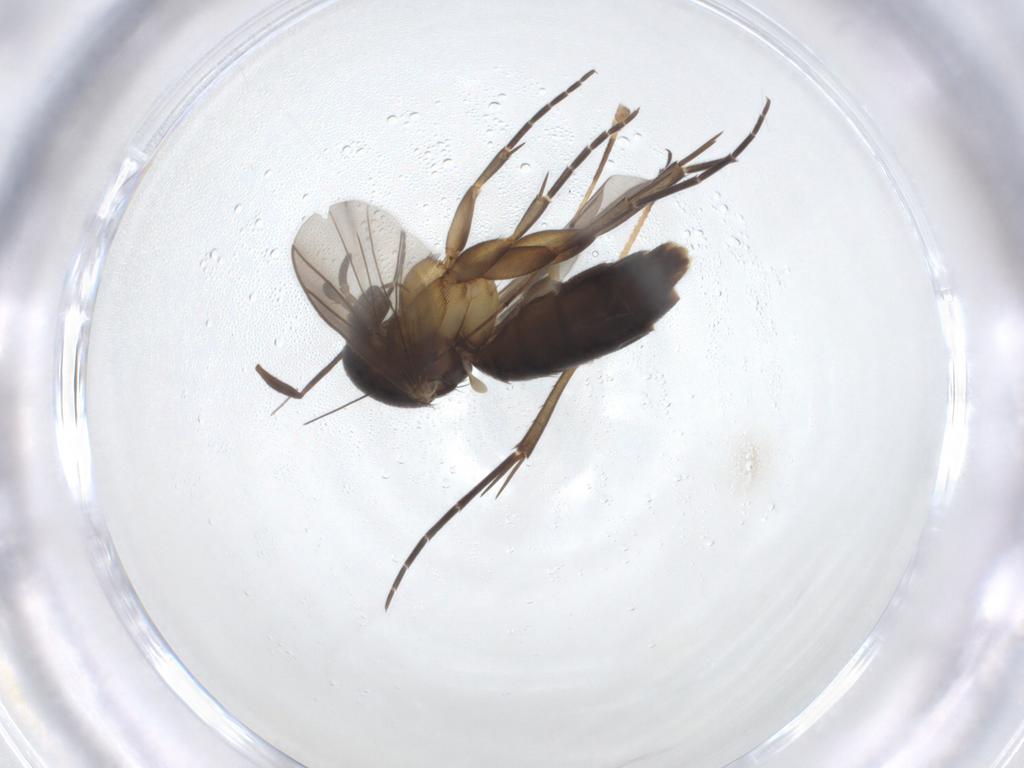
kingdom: Animalia
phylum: Arthropoda
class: Insecta
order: Diptera
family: Mycetophilidae
